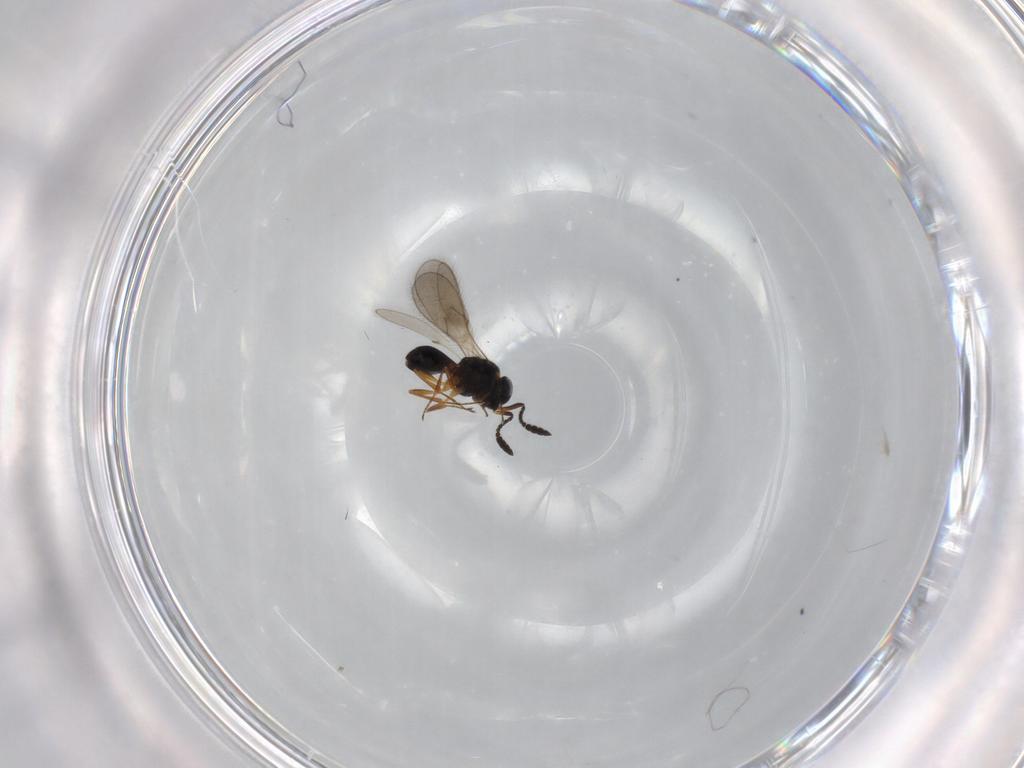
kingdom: Animalia
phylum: Arthropoda
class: Insecta
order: Hymenoptera
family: Scelionidae
